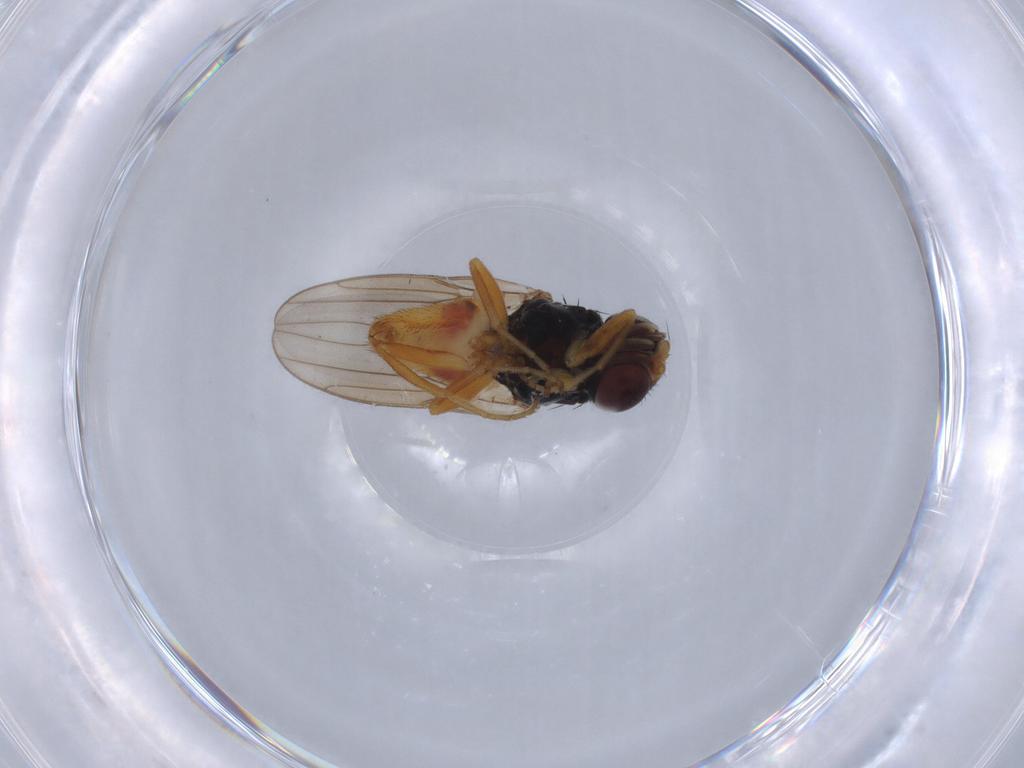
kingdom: Animalia
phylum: Arthropoda
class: Insecta
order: Diptera
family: Chloropidae
